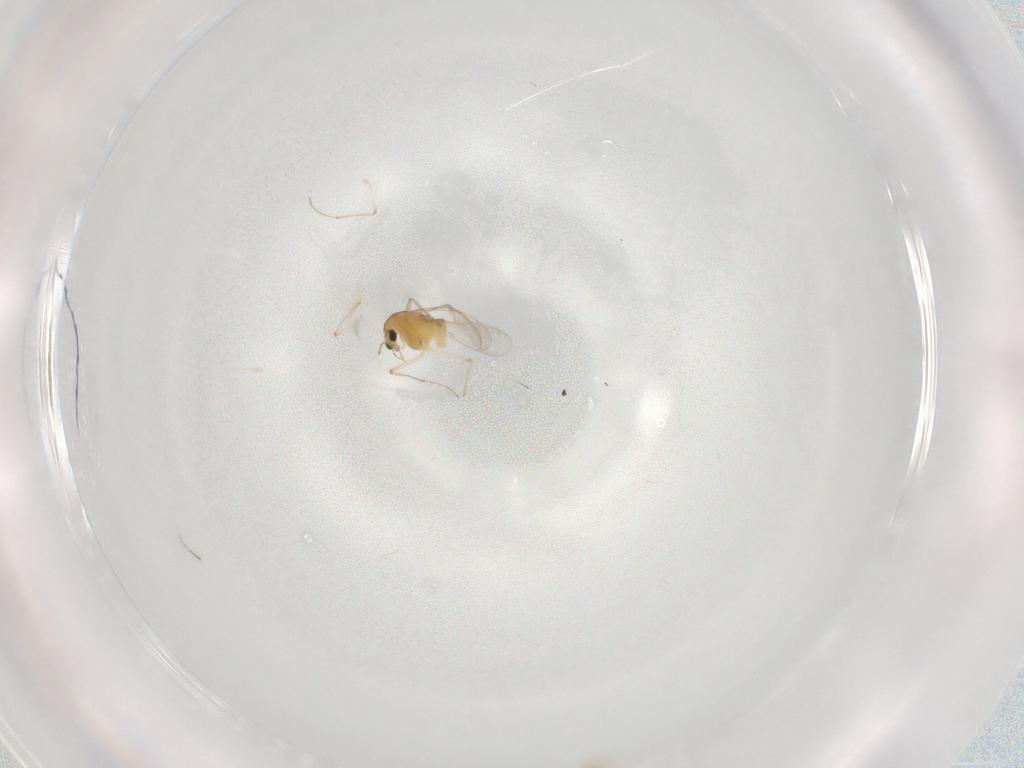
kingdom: Animalia
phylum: Arthropoda
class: Insecta
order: Diptera
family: Chironomidae
